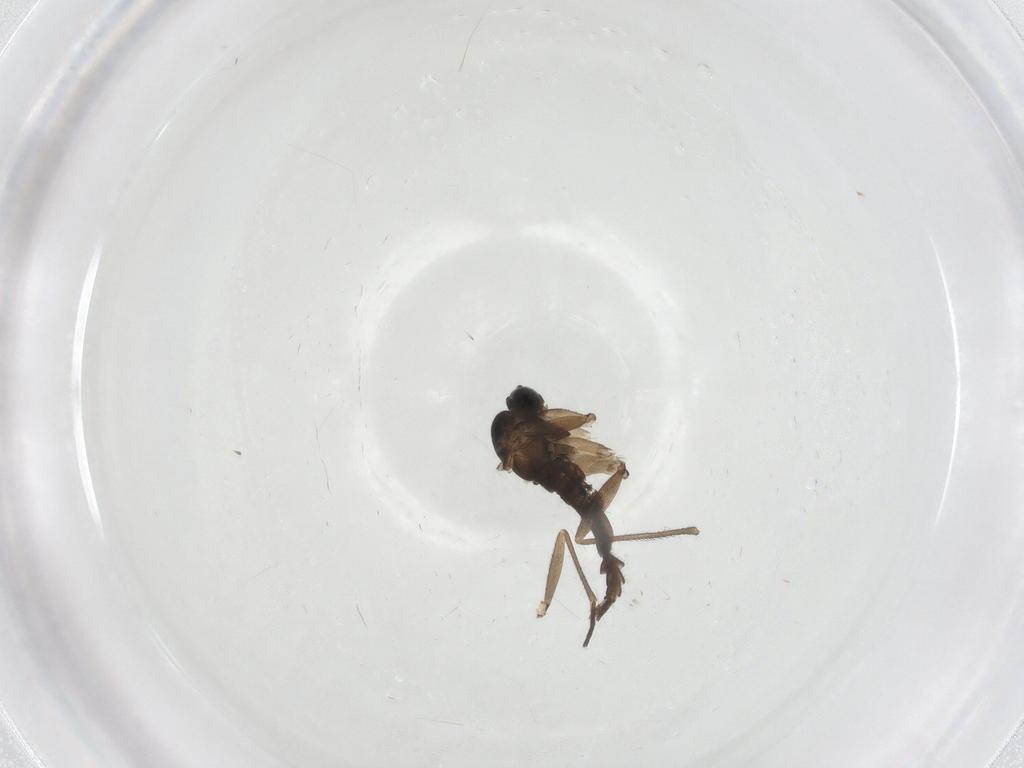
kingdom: Animalia
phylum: Arthropoda
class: Insecta
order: Diptera
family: Sciaridae
